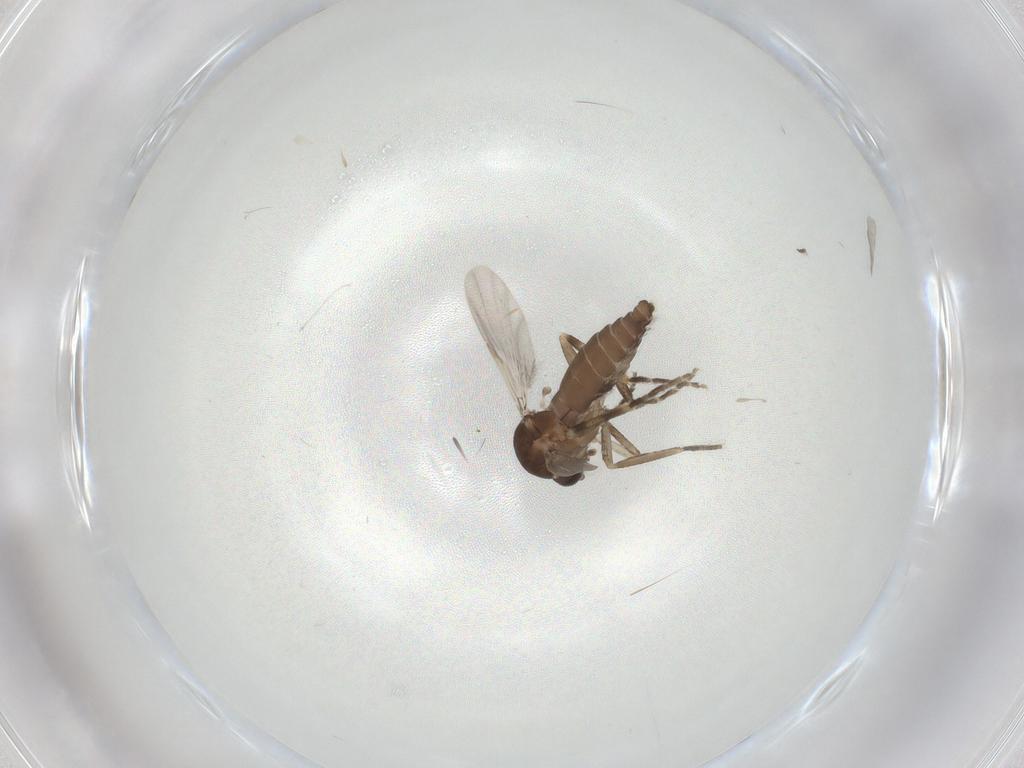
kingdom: Animalia
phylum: Arthropoda
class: Insecta
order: Diptera
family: Ceratopogonidae
